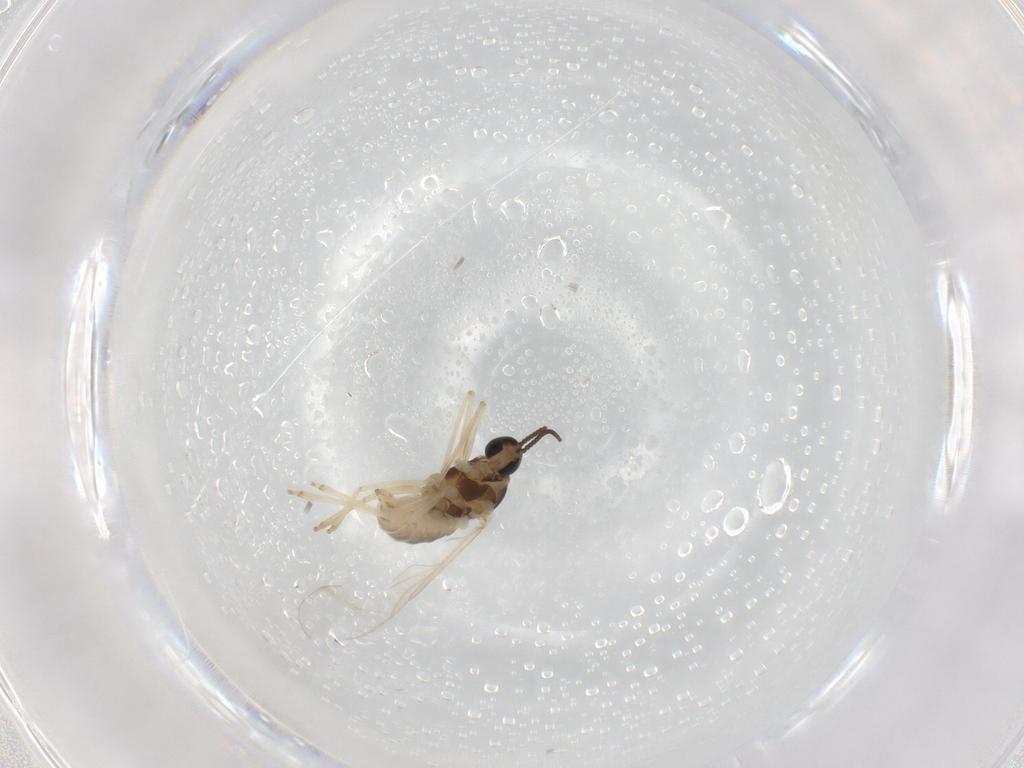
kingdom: Animalia
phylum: Arthropoda
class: Insecta
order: Diptera
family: Cecidomyiidae
